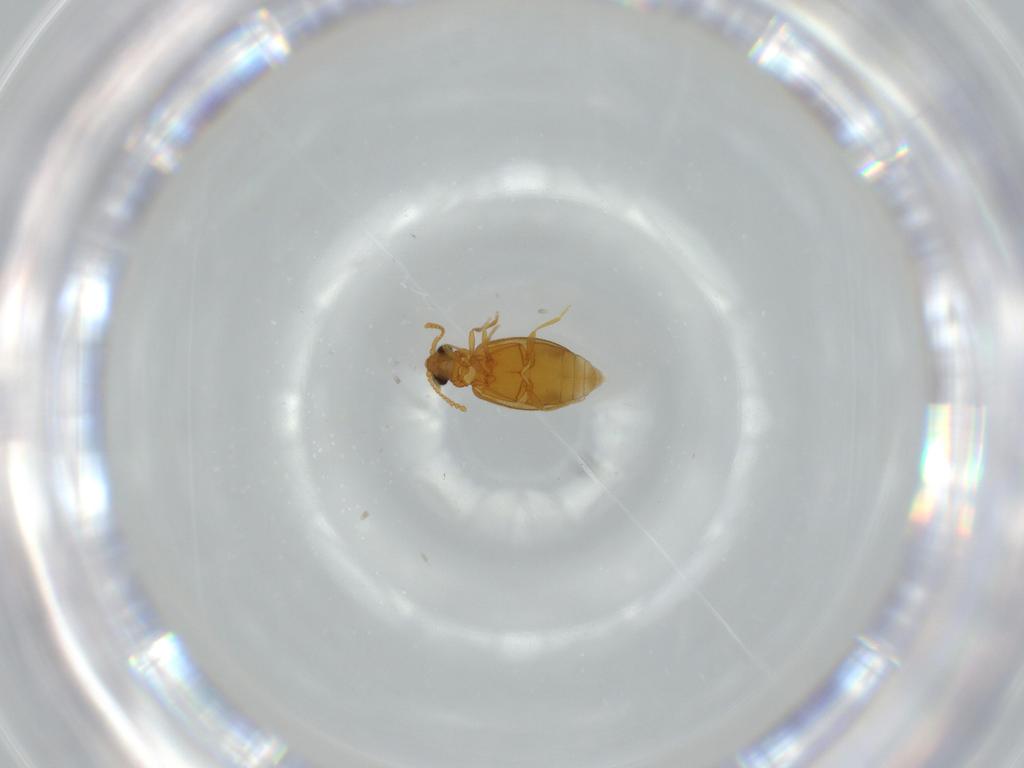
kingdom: Animalia
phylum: Arthropoda
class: Insecta
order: Coleoptera
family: Aderidae
